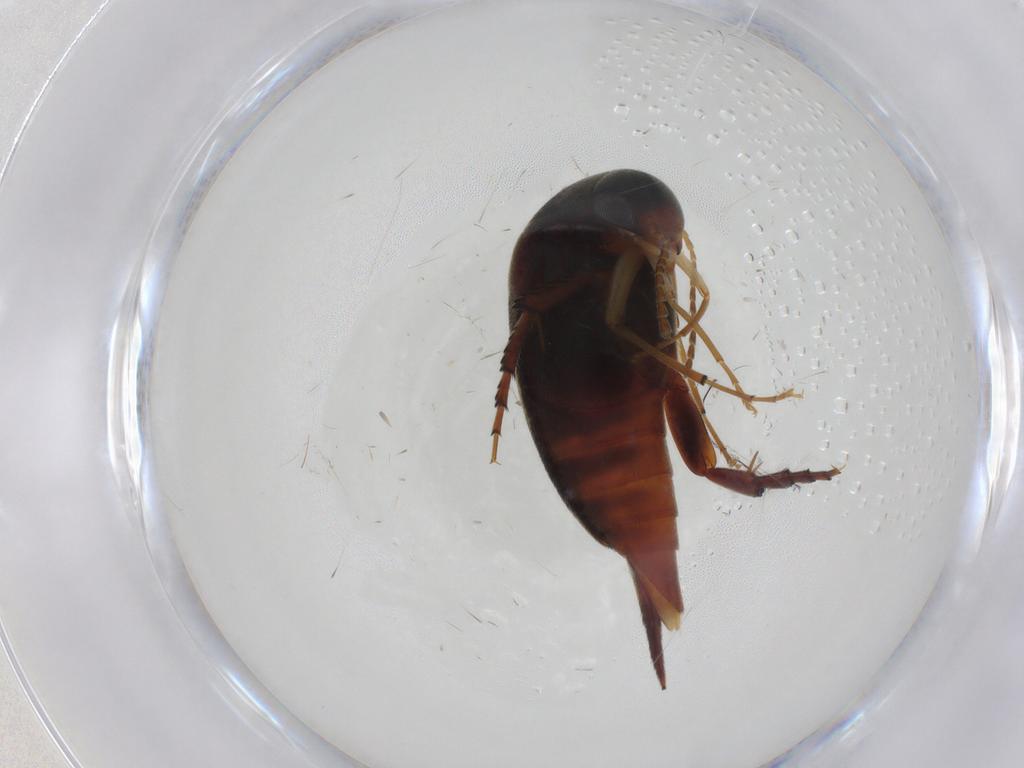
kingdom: Animalia
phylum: Arthropoda
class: Insecta
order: Coleoptera
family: Mordellidae
